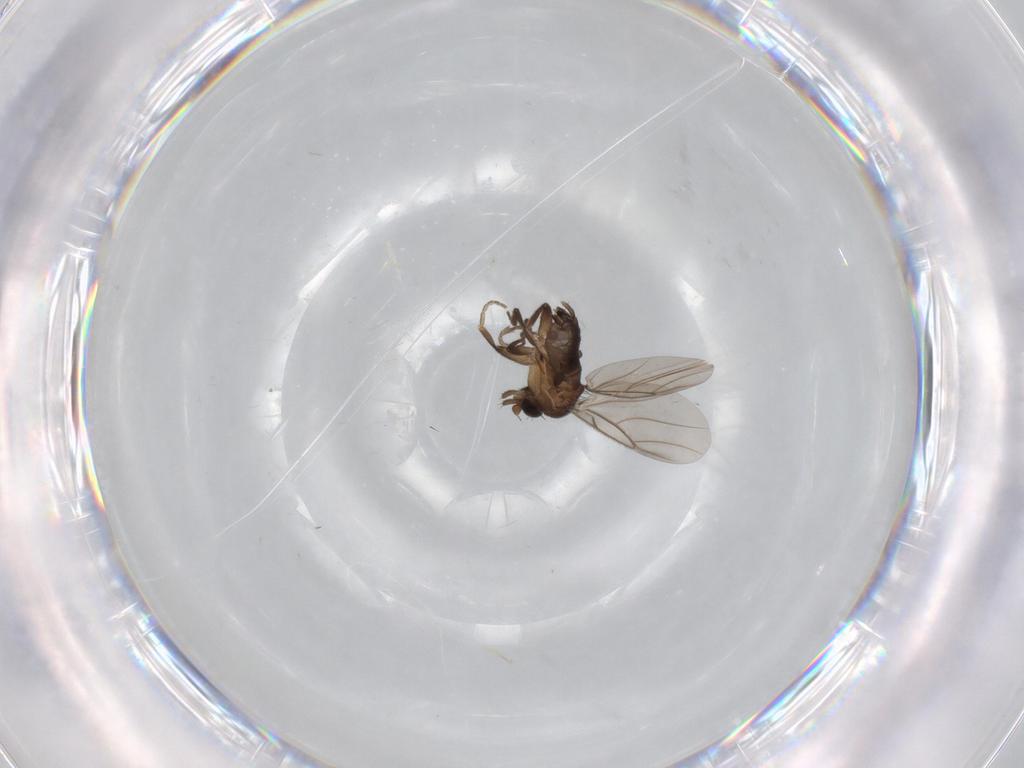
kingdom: Animalia
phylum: Arthropoda
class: Insecta
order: Diptera
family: Phoridae
